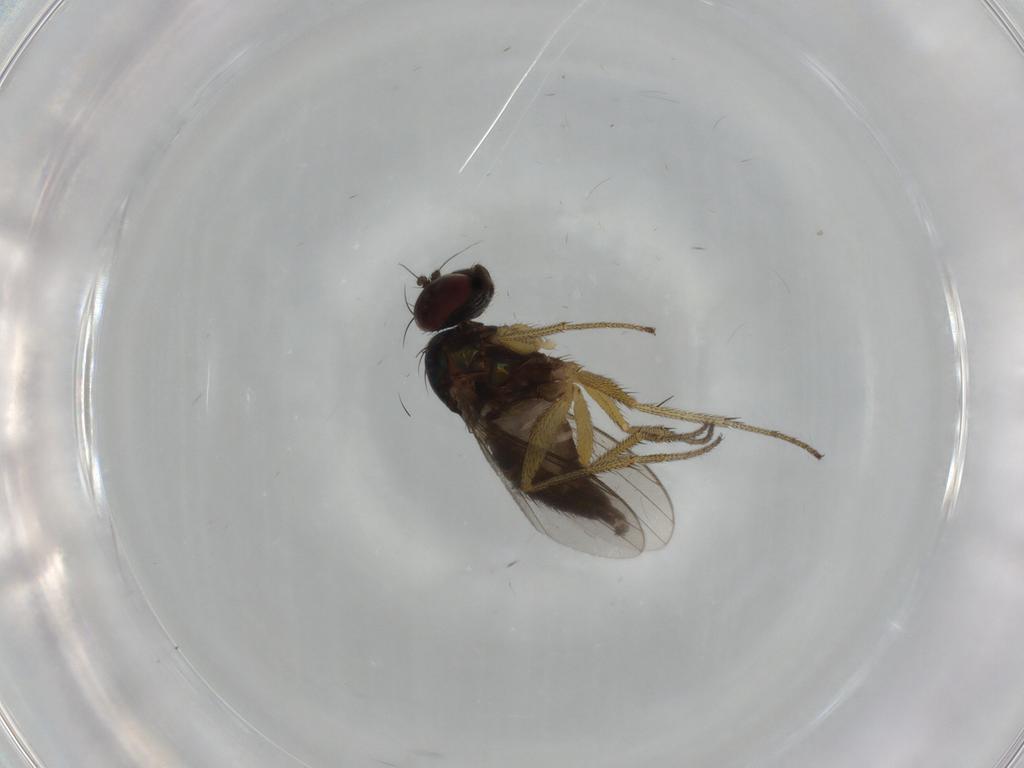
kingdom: Animalia
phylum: Arthropoda
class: Insecta
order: Diptera
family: Dolichopodidae
